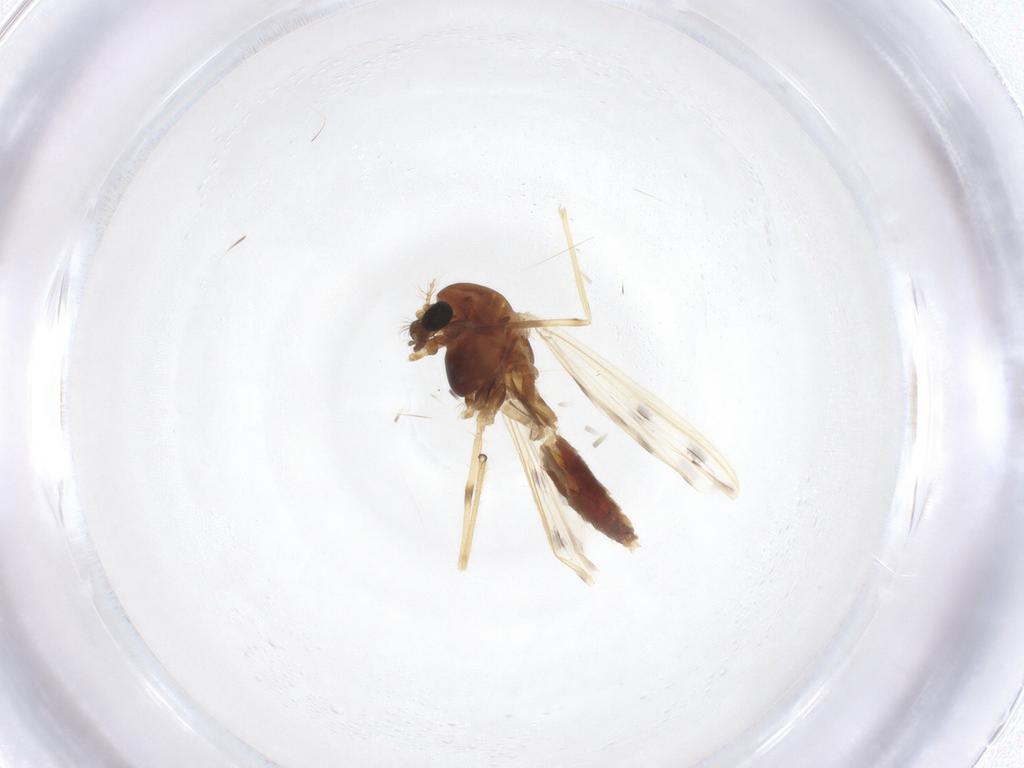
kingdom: Animalia
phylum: Arthropoda
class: Insecta
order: Diptera
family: Chironomidae
